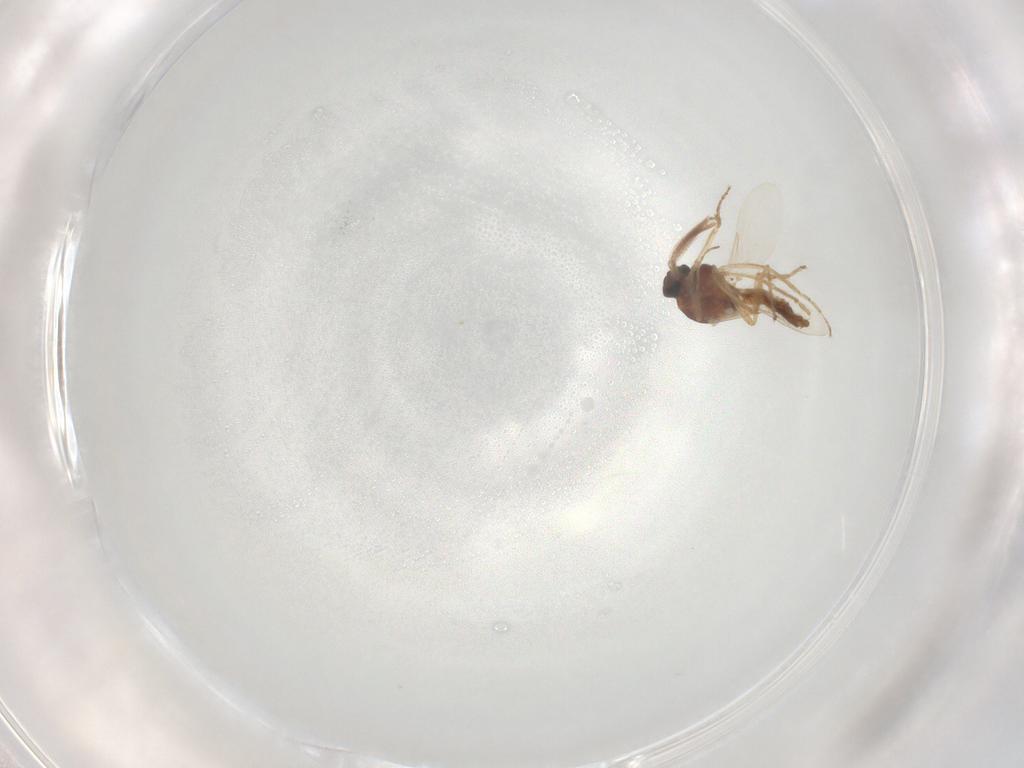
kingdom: Animalia
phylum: Arthropoda
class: Insecta
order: Diptera
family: Ceratopogonidae
